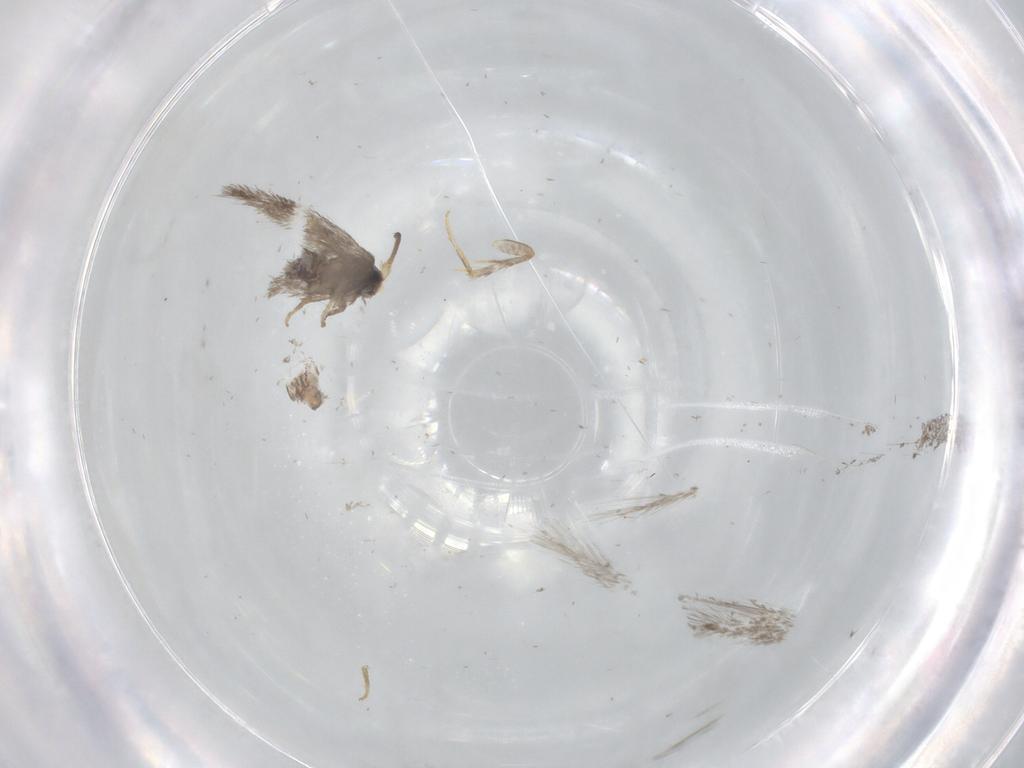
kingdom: Animalia
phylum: Arthropoda
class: Insecta
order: Lepidoptera
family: Nepticulidae
